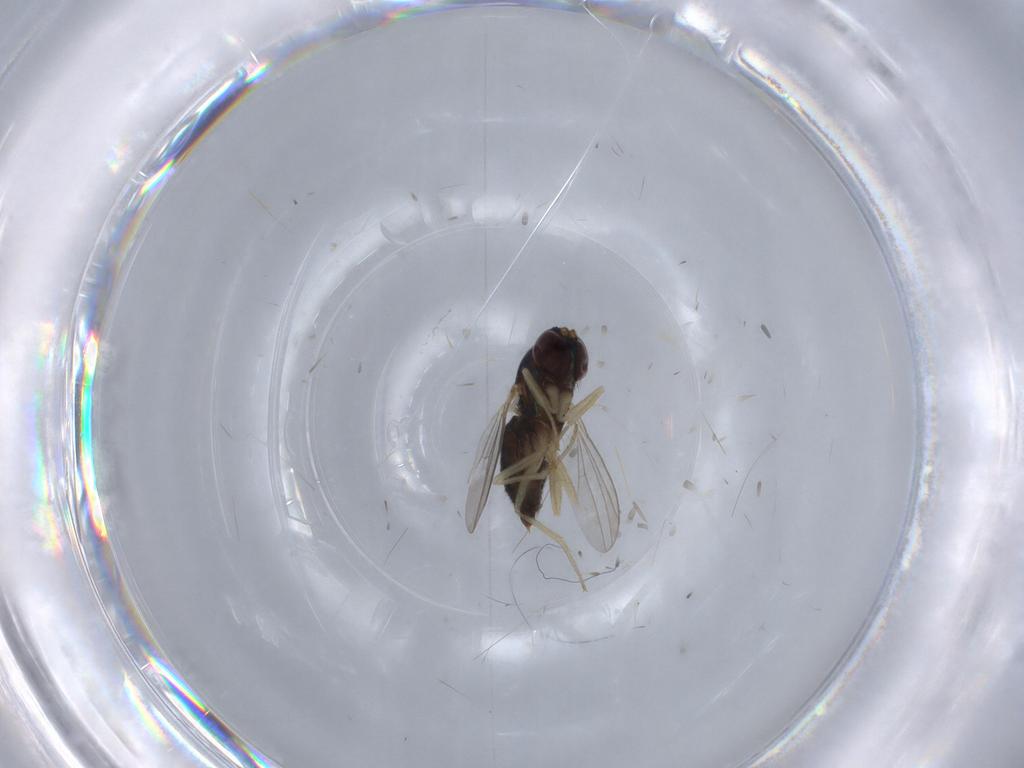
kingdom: Animalia
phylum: Arthropoda
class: Insecta
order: Diptera
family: Dolichopodidae
